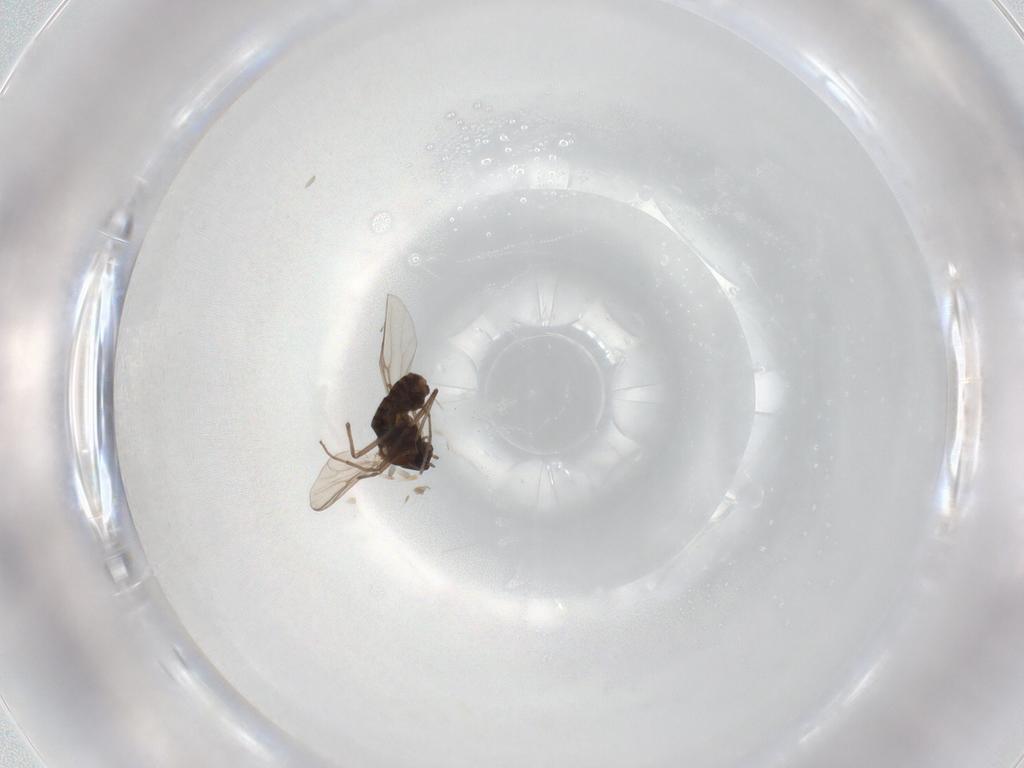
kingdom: Animalia
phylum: Arthropoda
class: Insecta
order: Diptera
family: Chironomidae
